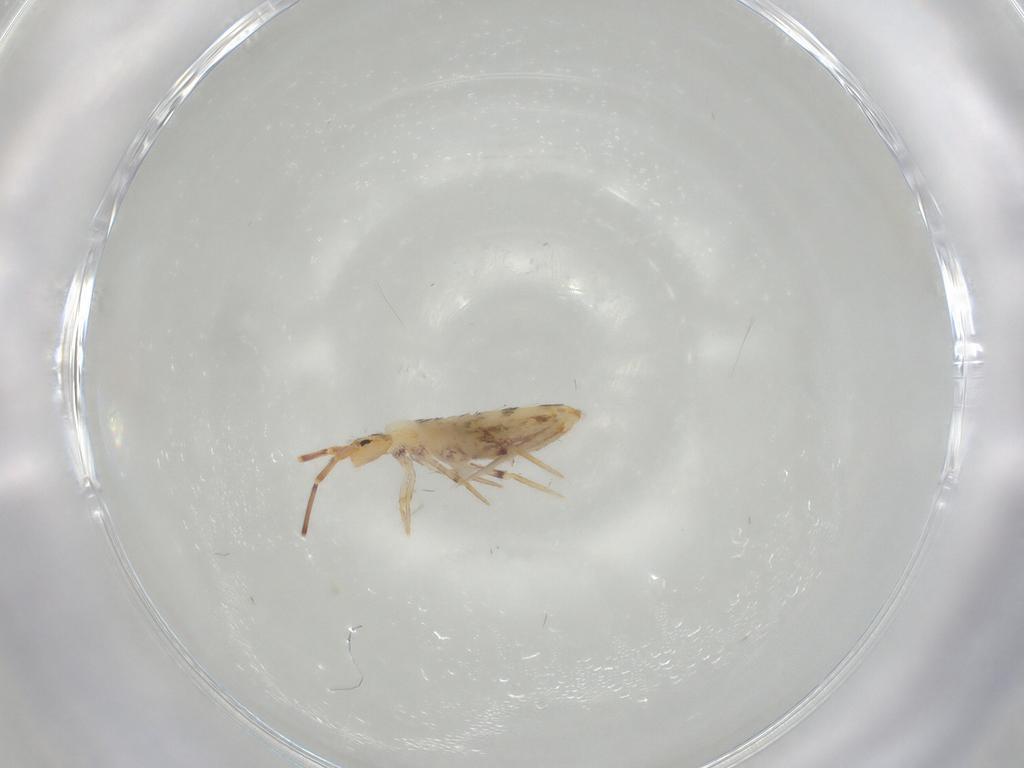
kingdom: Animalia
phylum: Arthropoda
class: Collembola
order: Poduromorpha
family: Hypogastruridae
